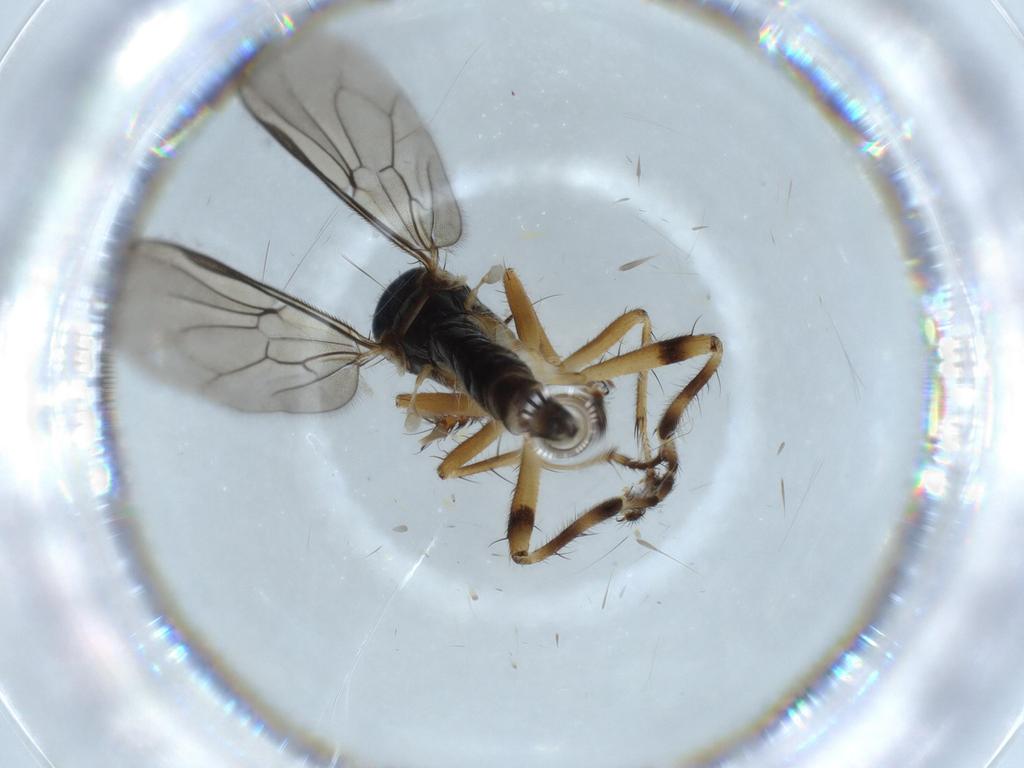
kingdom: Animalia
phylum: Arthropoda
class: Insecta
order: Diptera
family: Hybotidae
